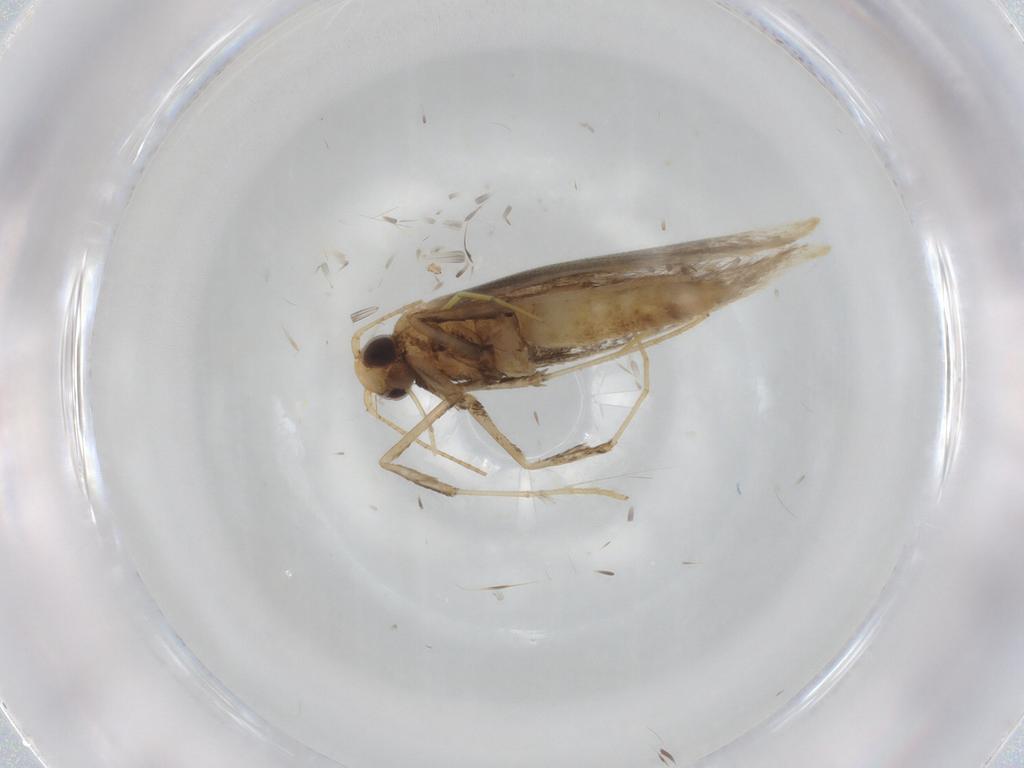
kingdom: Animalia
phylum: Arthropoda
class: Insecta
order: Lepidoptera
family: Gracillariidae
